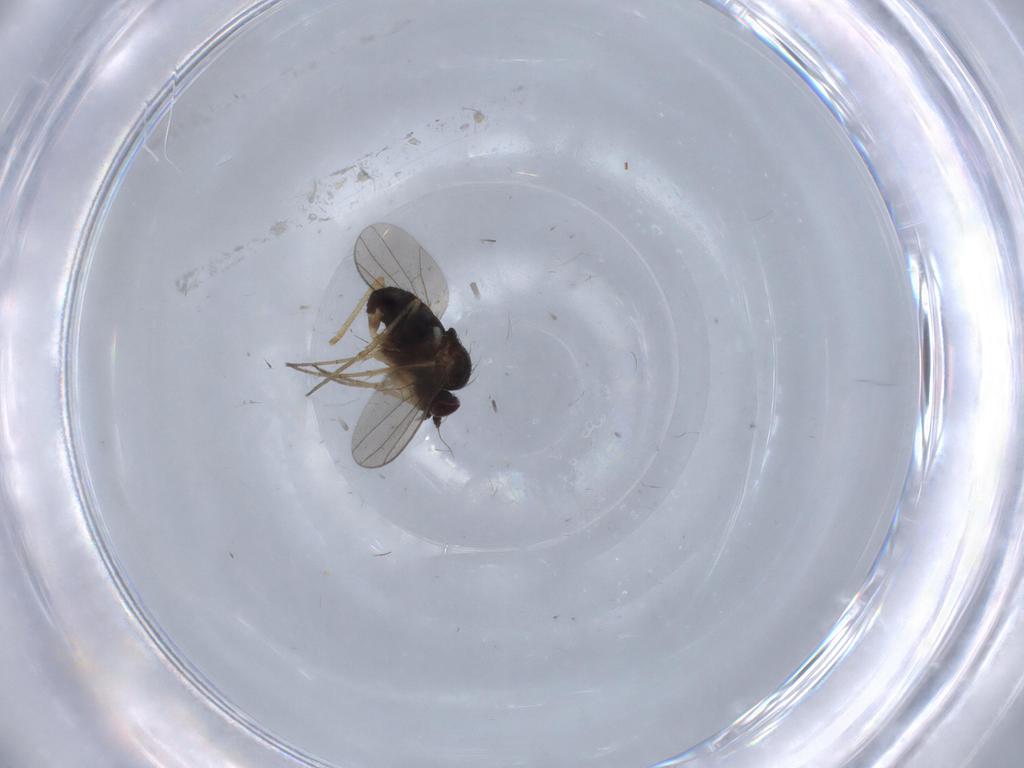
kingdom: Animalia
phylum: Arthropoda
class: Insecta
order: Diptera
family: Dolichopodidae
